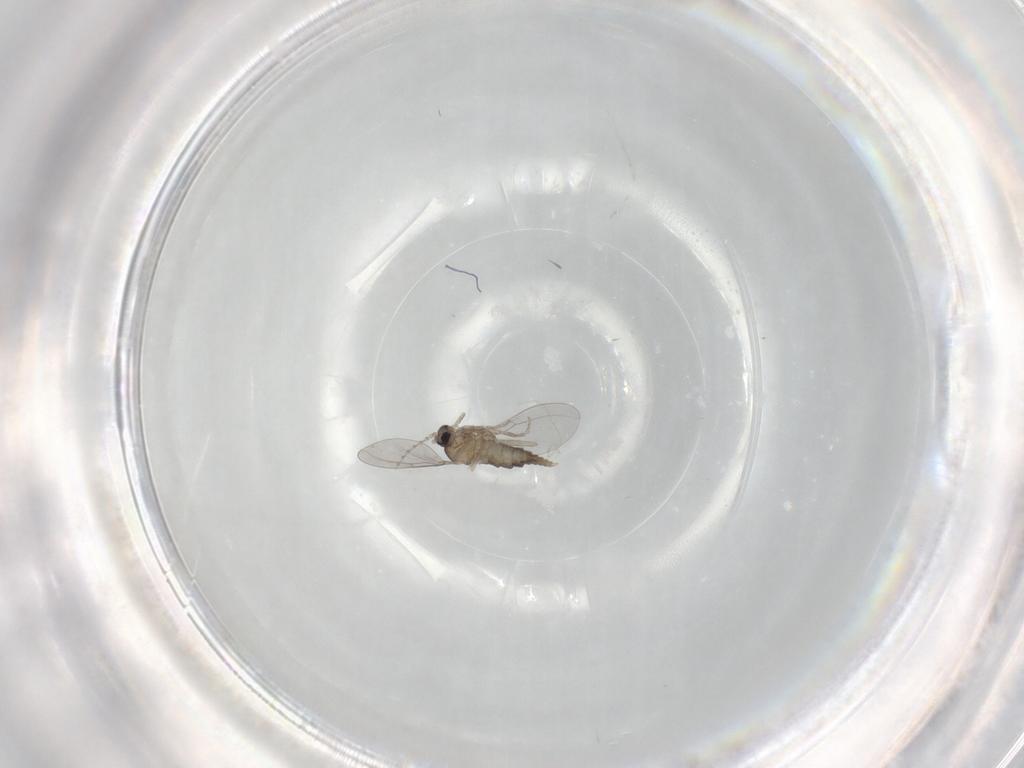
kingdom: Animalia
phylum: Arthropoda
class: Insecta
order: Diptera
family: Cecidomyiidae
